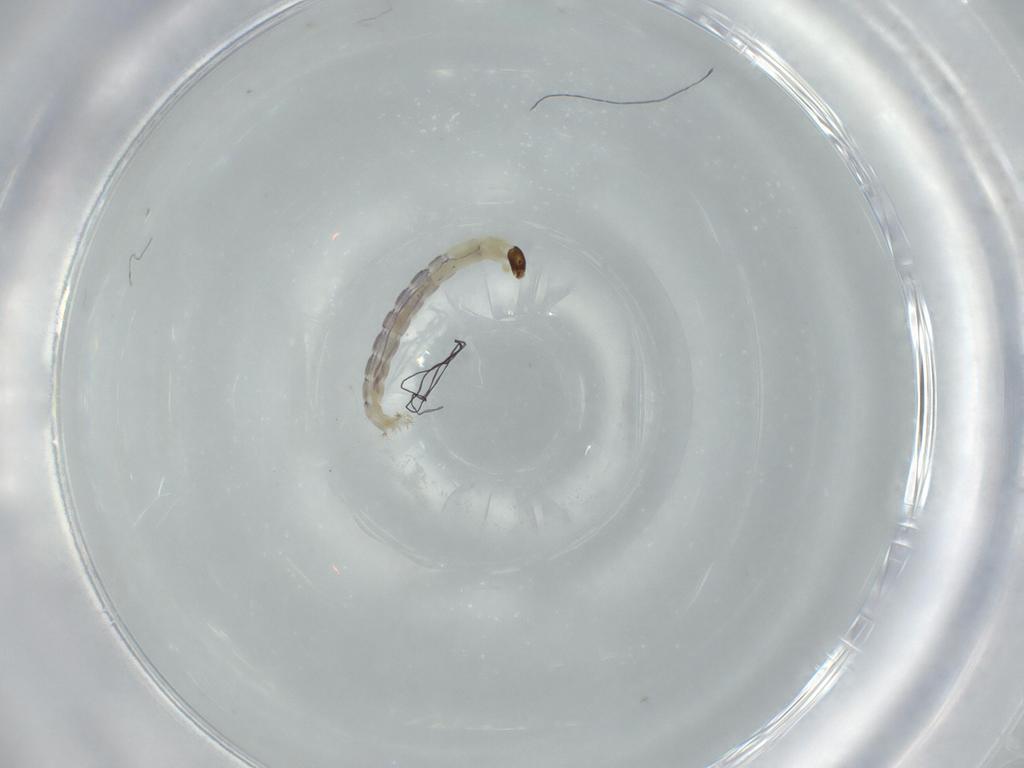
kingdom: Animalia
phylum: Arthropoda
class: Insecta
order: Diptera
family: Chironomidae
